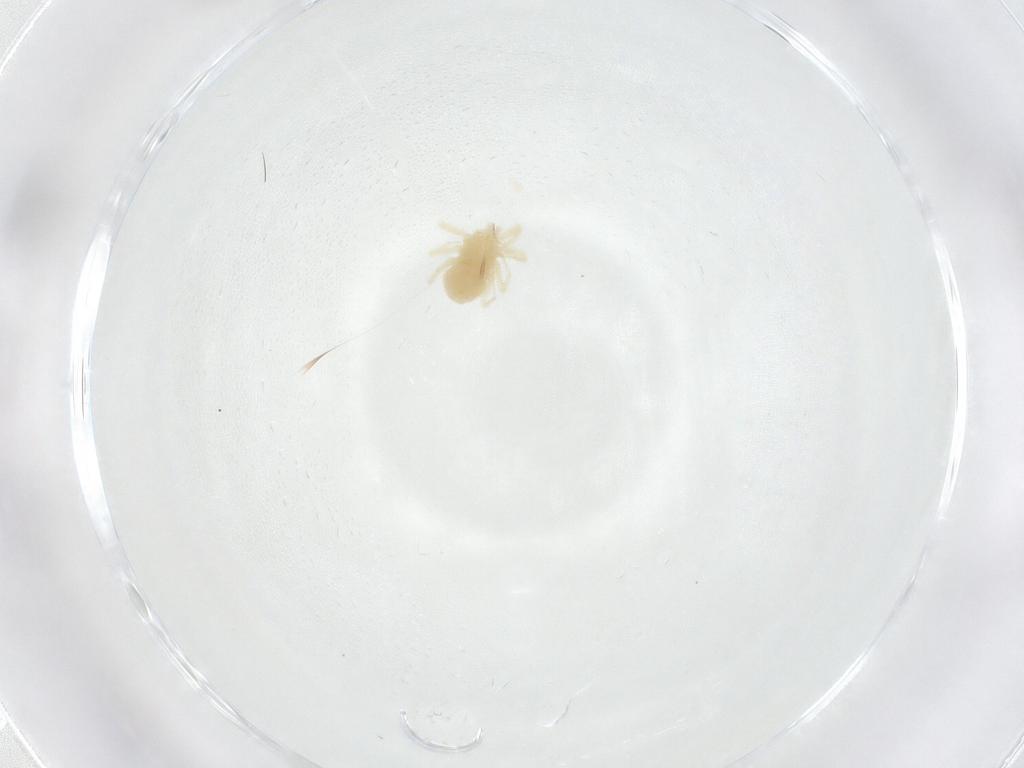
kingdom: Animalia
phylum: Arthropoda
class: Arachnida
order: Trombidiformes
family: Anystidae
